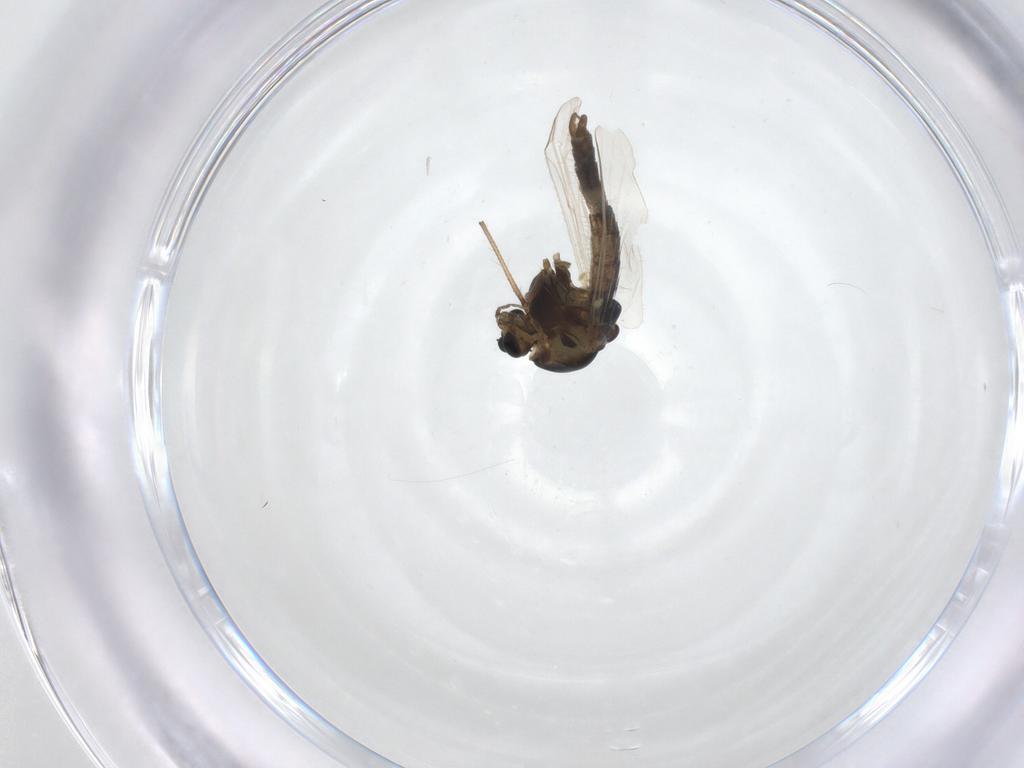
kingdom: Animalia
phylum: Arthropoda
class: Insecta
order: Diptera
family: Chironomidae
